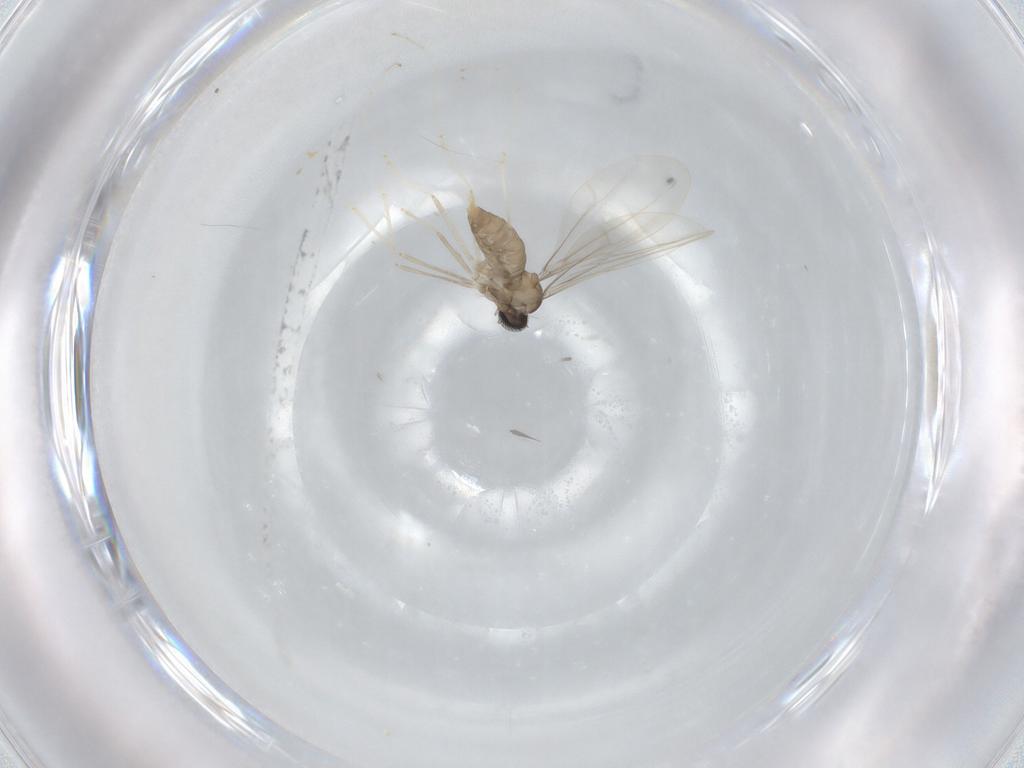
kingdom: Animalia
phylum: Arthropoda
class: Insecta
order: Diptera
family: Cecidomyiidae
